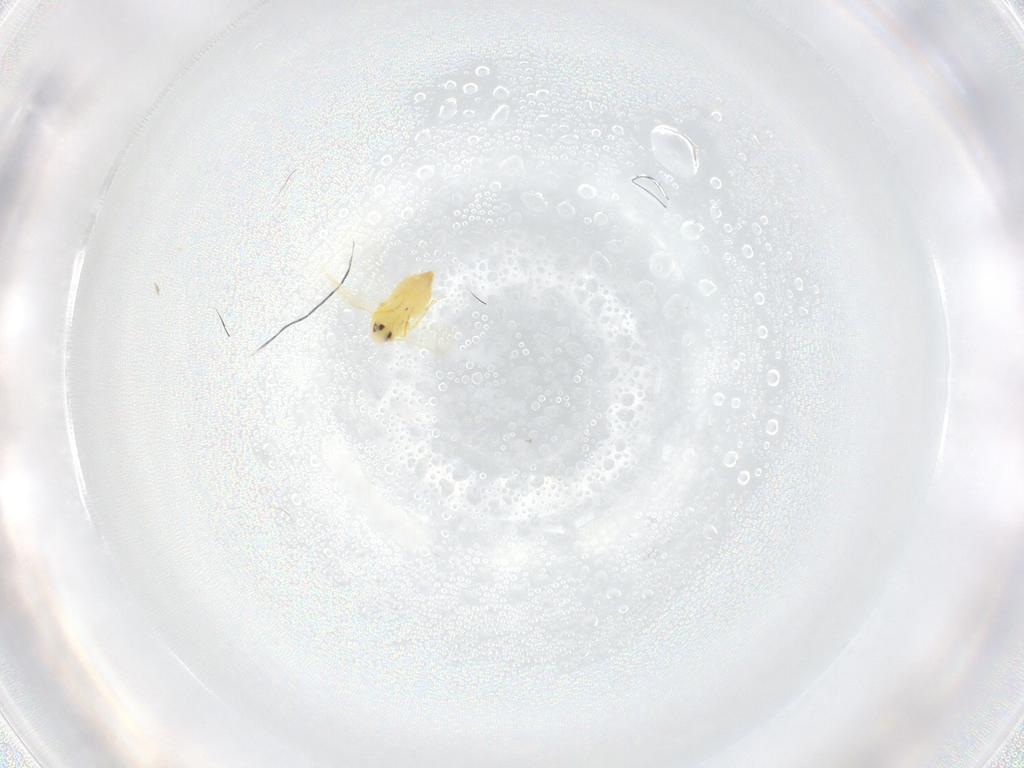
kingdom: Animalia
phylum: Arthropoda
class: Insecta
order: Hemiptera
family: Aleyrodidae
